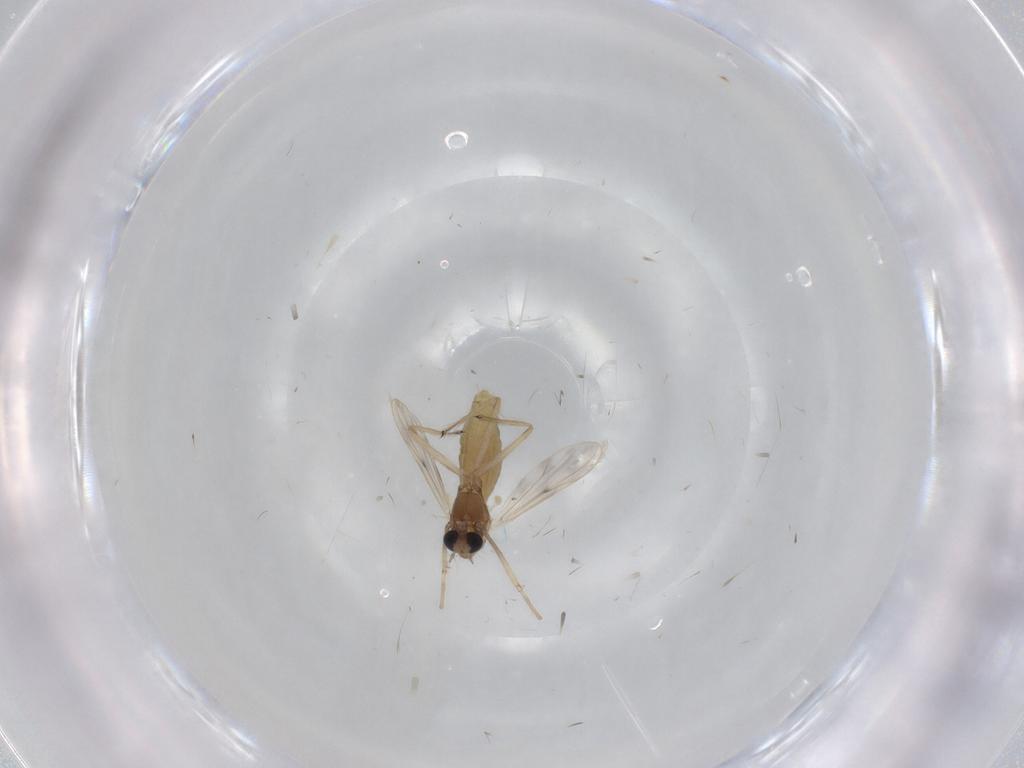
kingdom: Animalia
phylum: Arthropoda
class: Insecta
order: Diptera
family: Chironomidae
